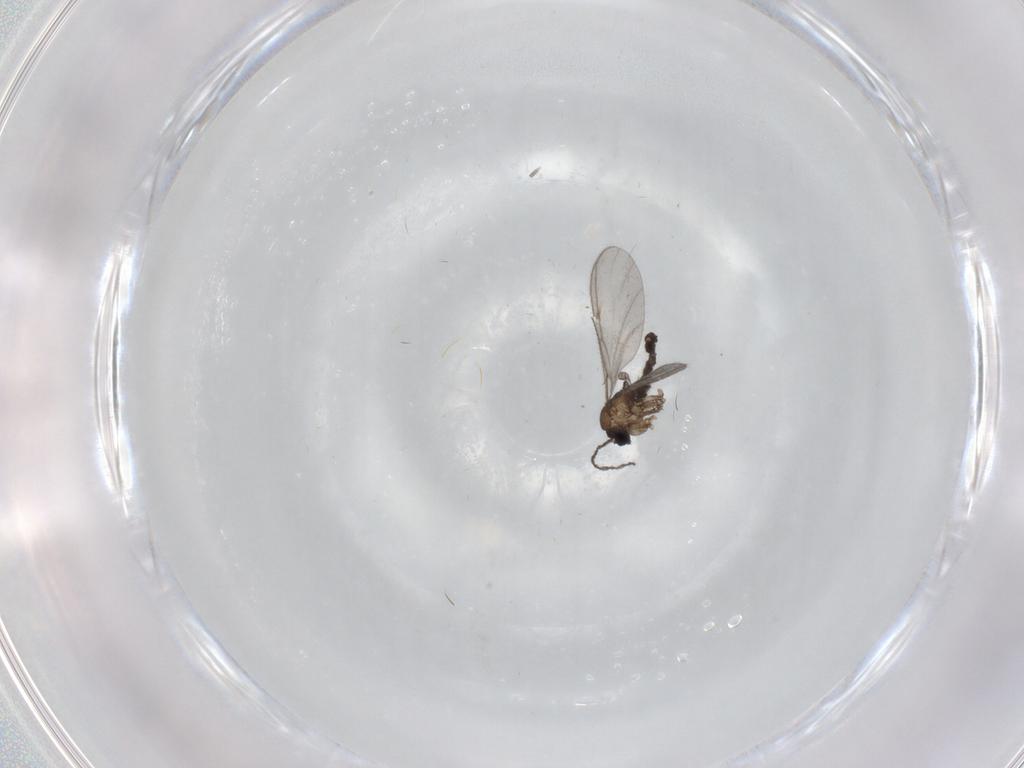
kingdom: Animalia
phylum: Arthropoda
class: Insecta
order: Diptera
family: Sciaridae
